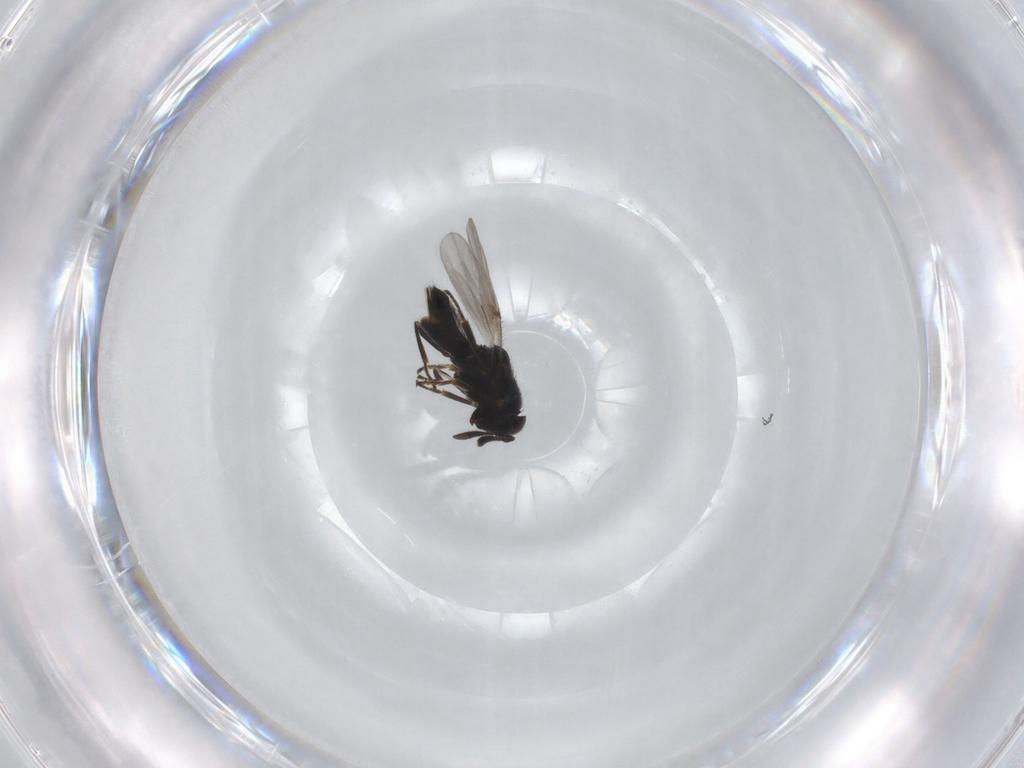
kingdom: Animalia
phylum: Arthropoda
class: Insecta
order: Hymenoptera
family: Encyrtidae
